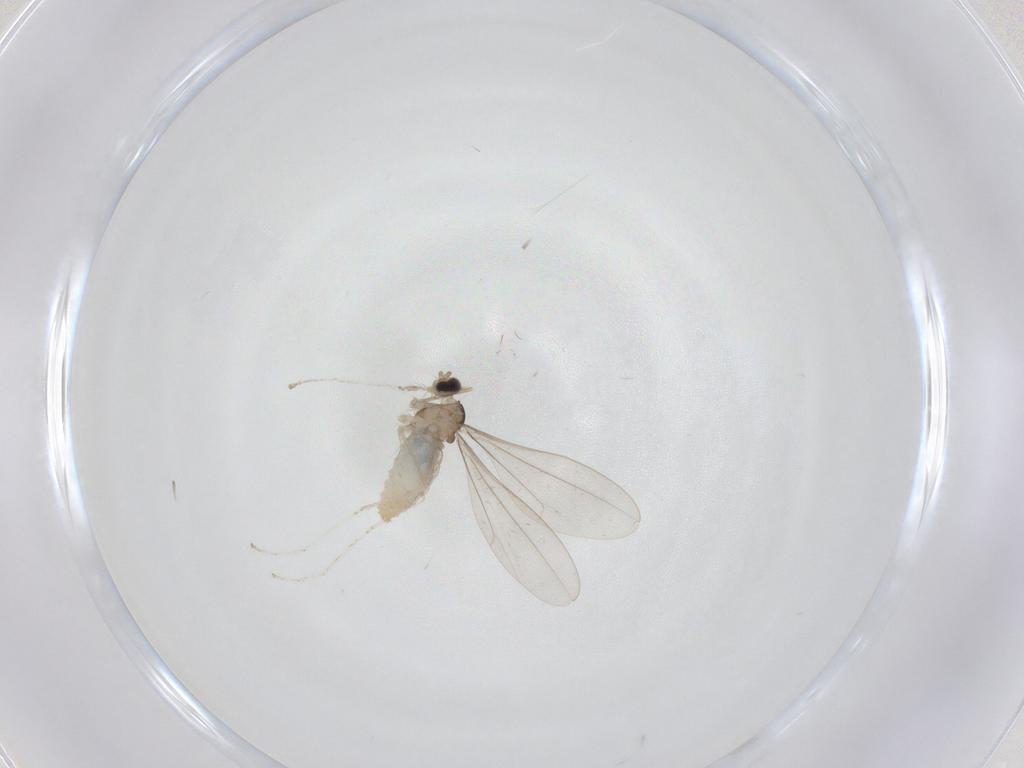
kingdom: Animalia
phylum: Arthropoda
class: Insecta
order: Diptera
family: Cecidomyiidae
